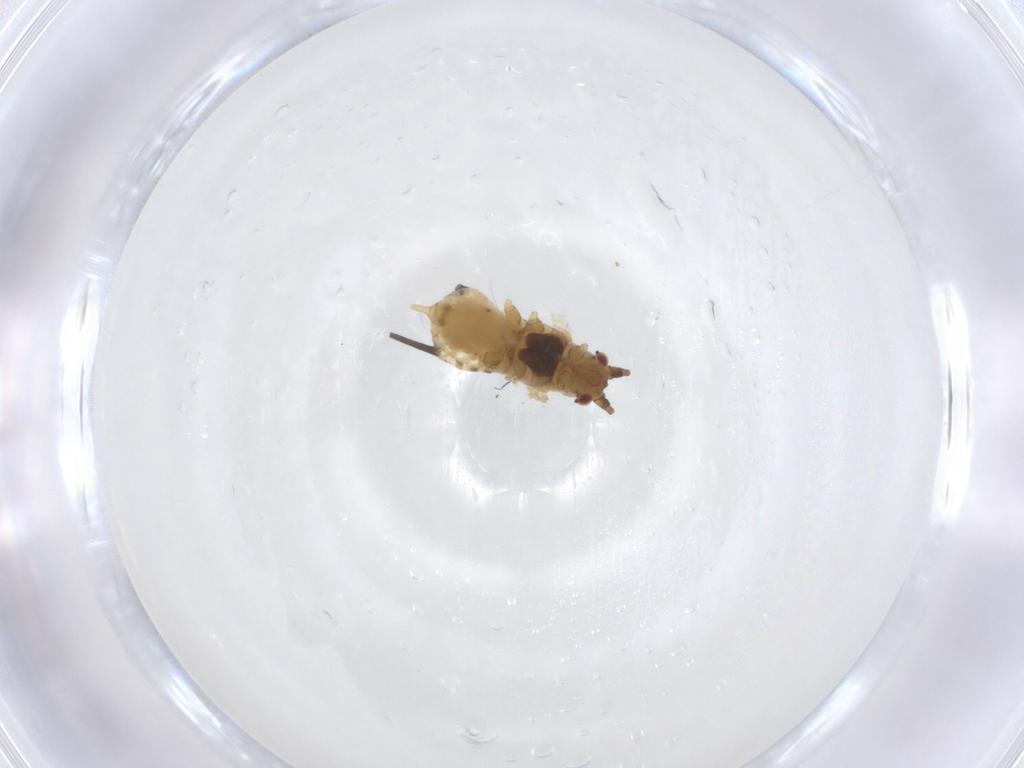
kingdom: Animalia
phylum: Arthropoda
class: Insecta
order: Hemiptera
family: Aphididae
